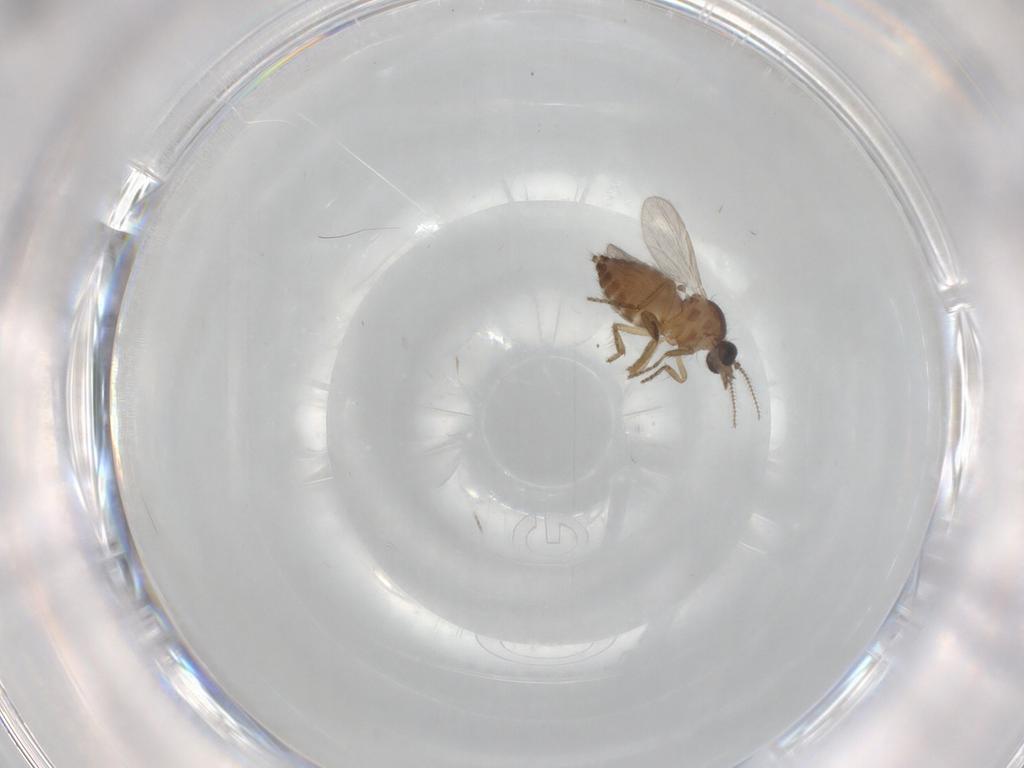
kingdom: Animalia
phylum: Arthropoda
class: Insecta
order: Diptera
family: Ceratopogonidae
